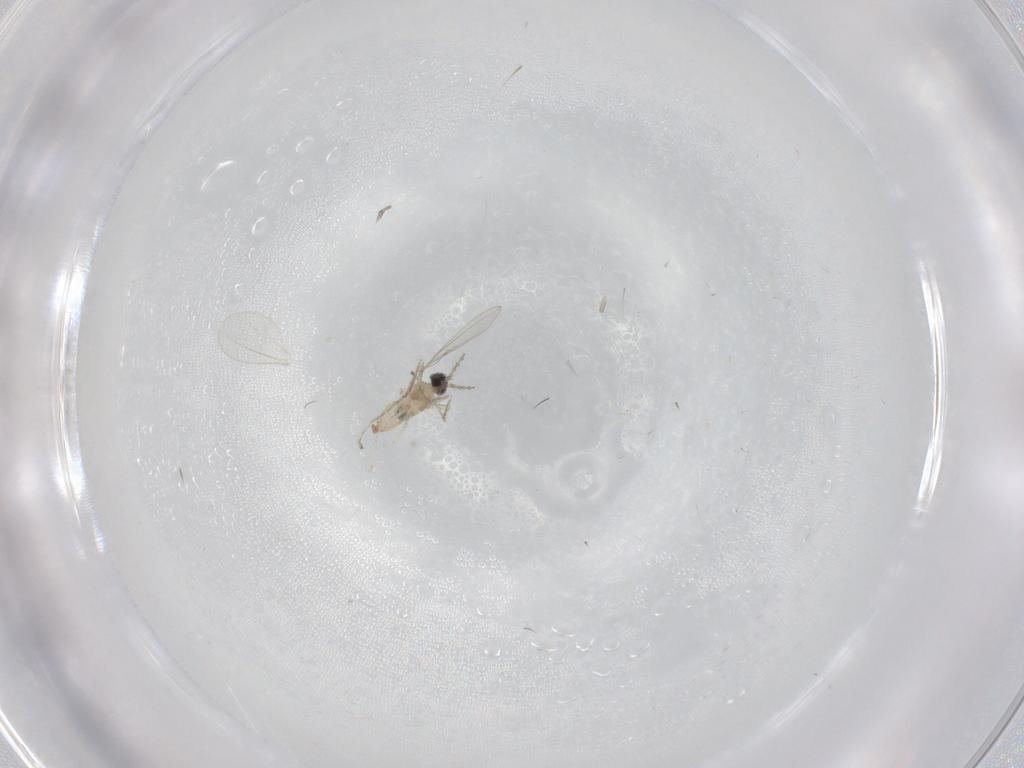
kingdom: Animalia
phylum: Arthropoda
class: Insecta
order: Diptera
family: Cecidomyiidae
